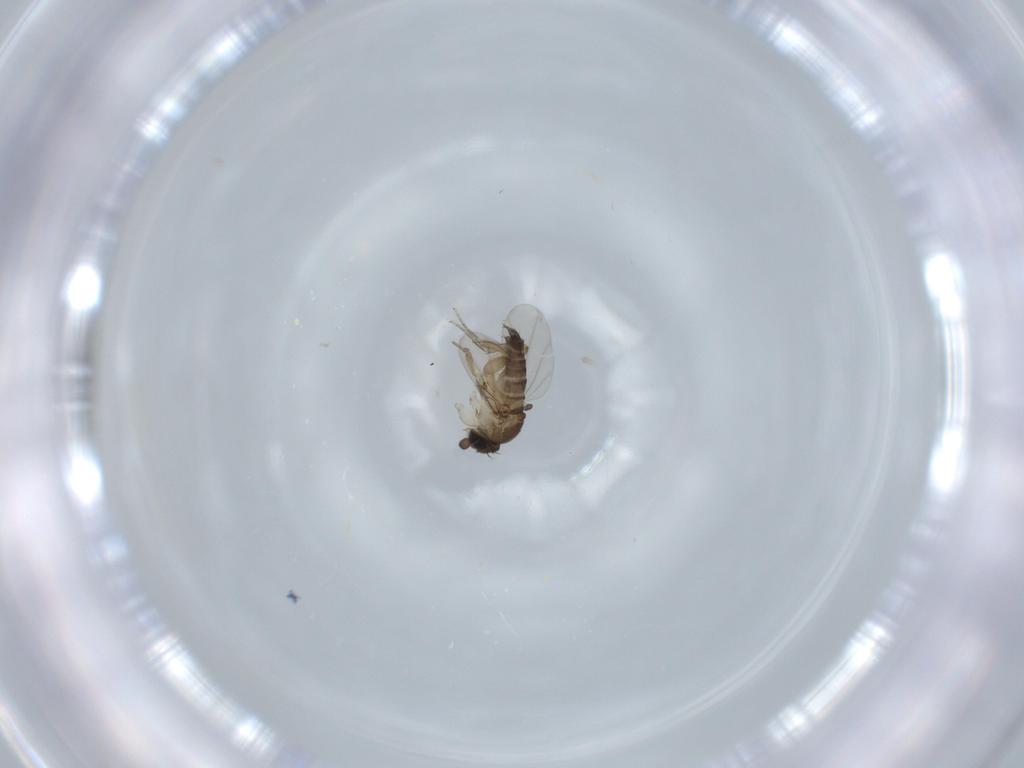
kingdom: Animalia
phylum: Arthropoda
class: Insecta
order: Diptera
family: Phoridae
